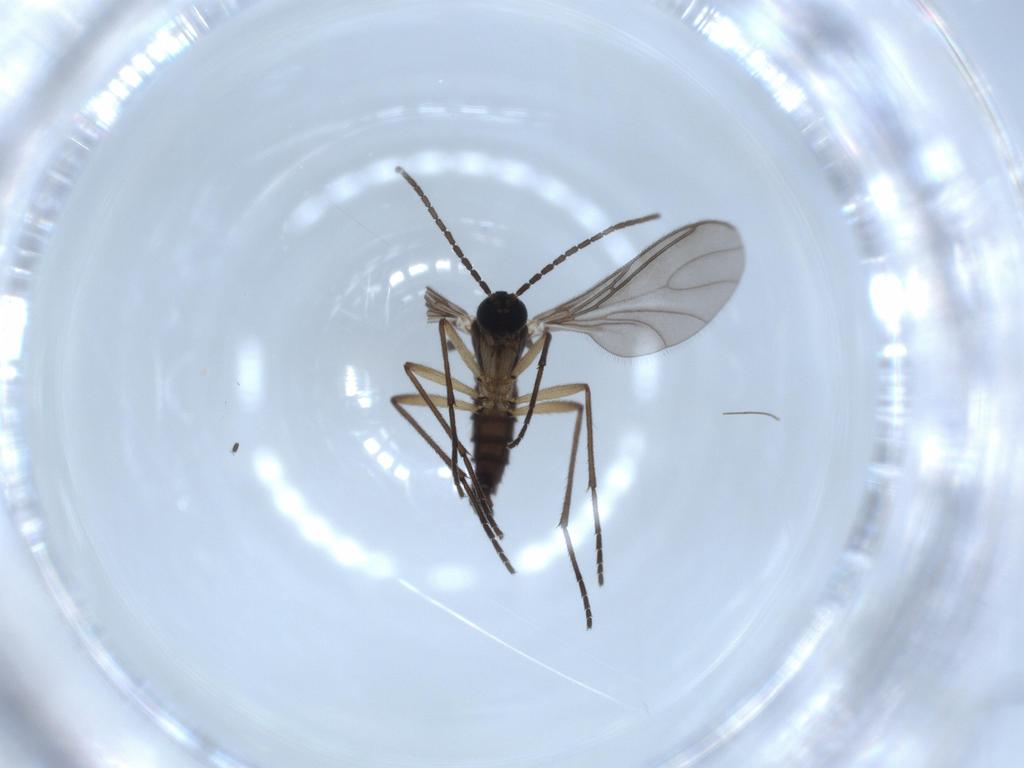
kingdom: Animalia
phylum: Arthropoda
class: Insecta
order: Diptera
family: Sciaridae
